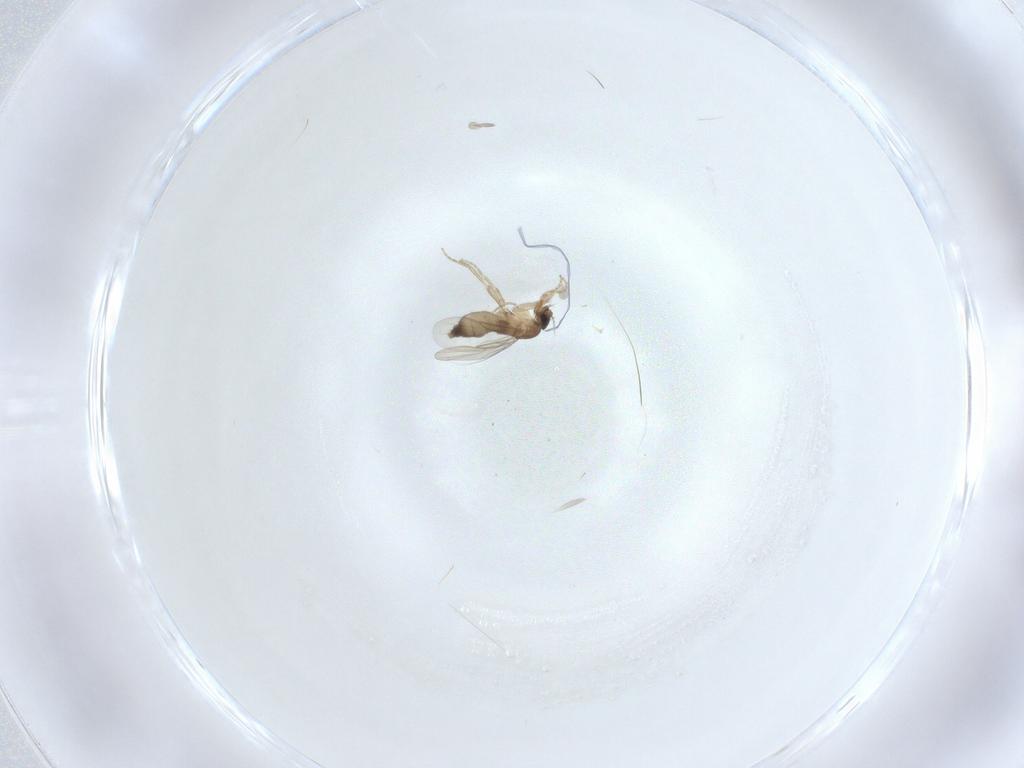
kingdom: Animalia
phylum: Arthropoda
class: Insecta
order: Diptera
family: Phoridae
